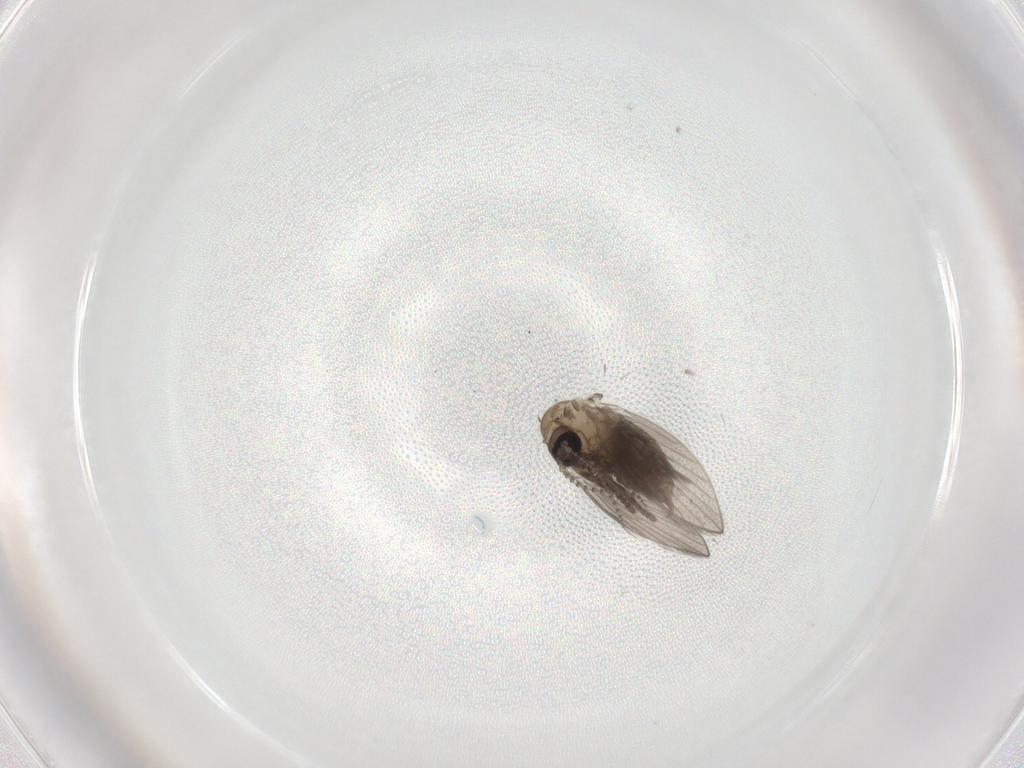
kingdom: Animalia
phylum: Arthropoda
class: Insecta
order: Diptera
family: Psychodidae
